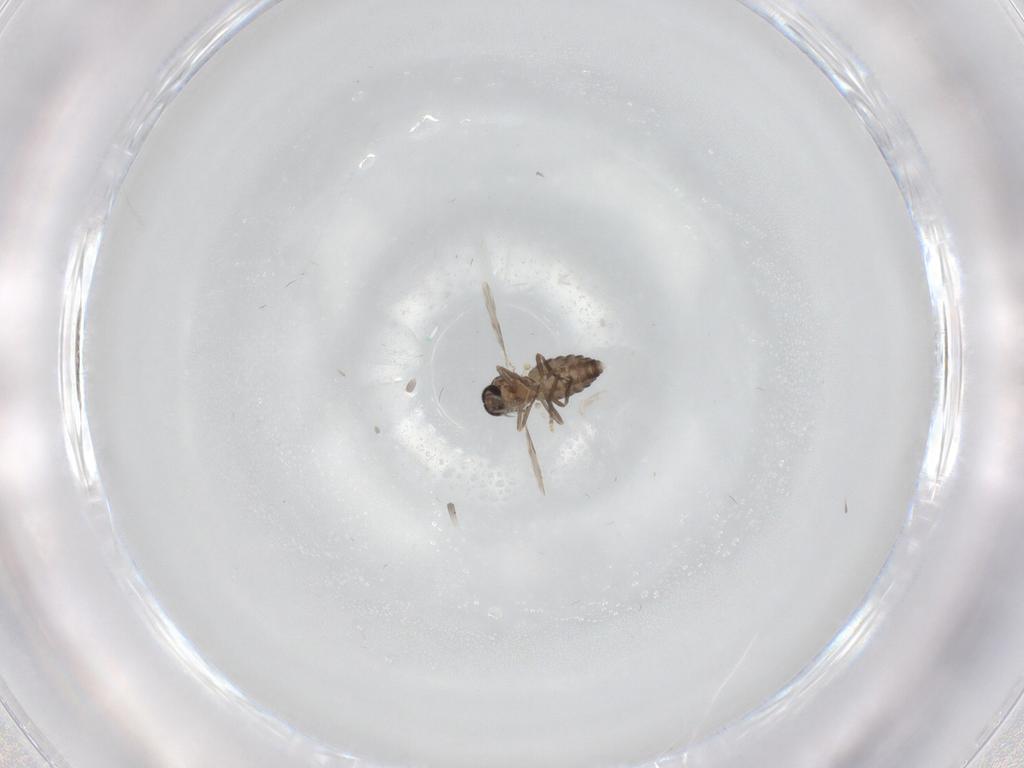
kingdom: Animalia
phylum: Arthropoda
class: Insecta
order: Diptera
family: Ceratopogonidae
